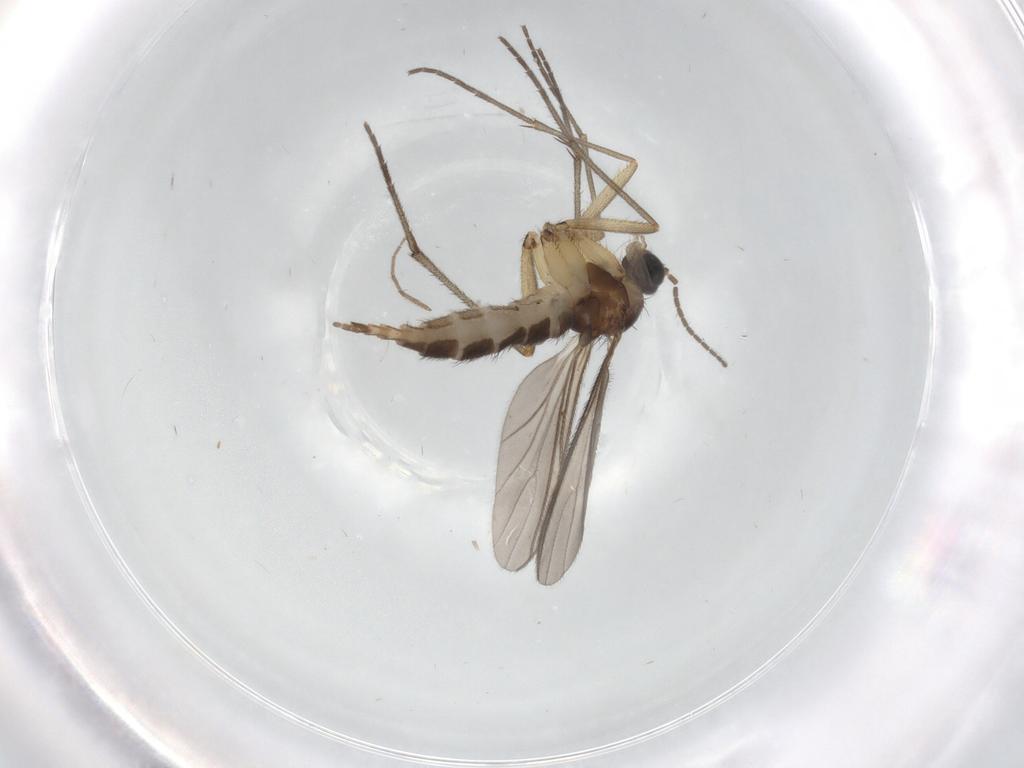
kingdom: Animalia
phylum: Arthropoda
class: Insecta
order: Diptera
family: Sciaridae
